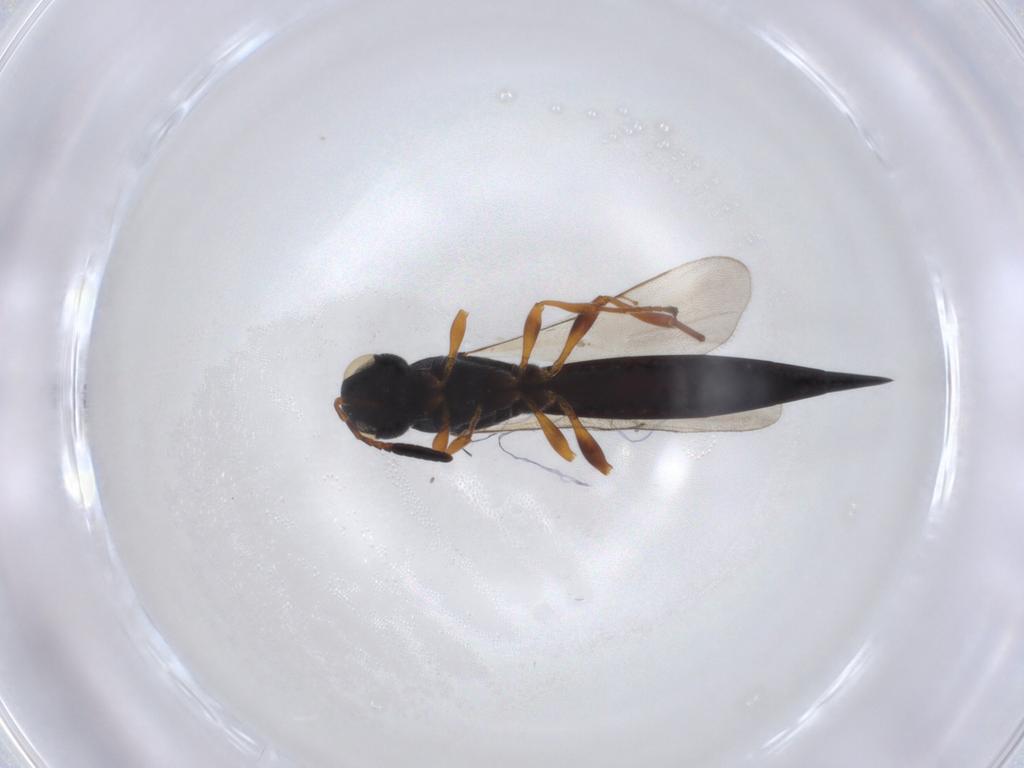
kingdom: Animalia
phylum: Arthropoda
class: Insecta
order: Hymenoptera
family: Scelionidae
